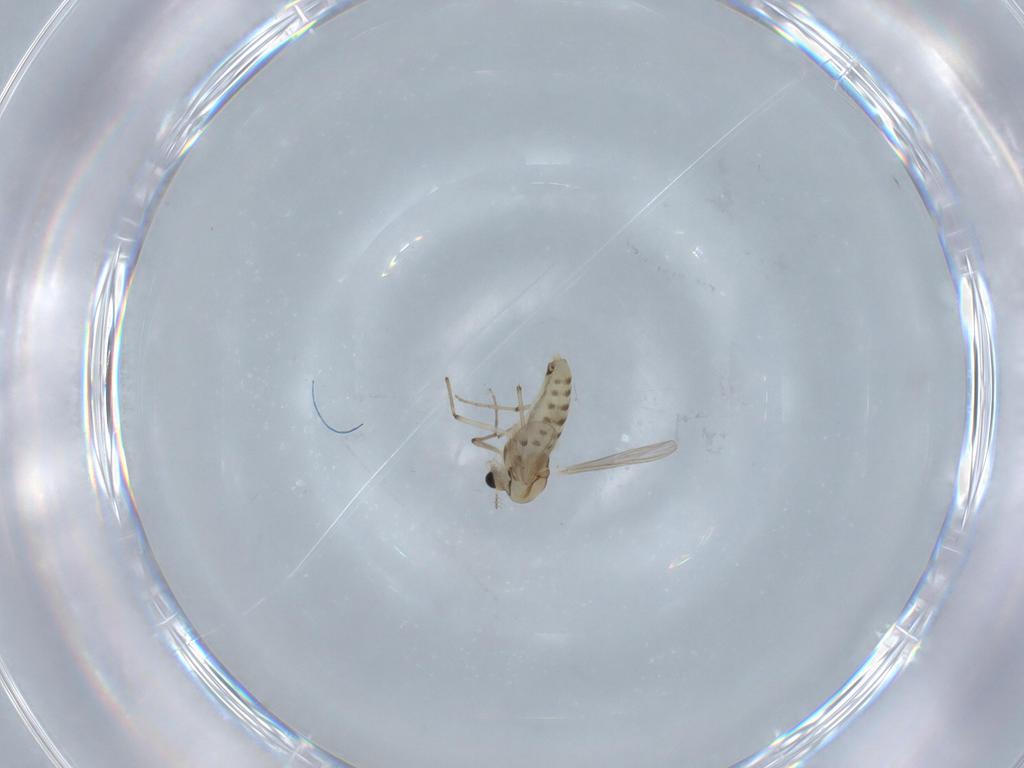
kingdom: Animalia
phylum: Arthropoda
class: Insecta
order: Diptera
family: Chironomidae
